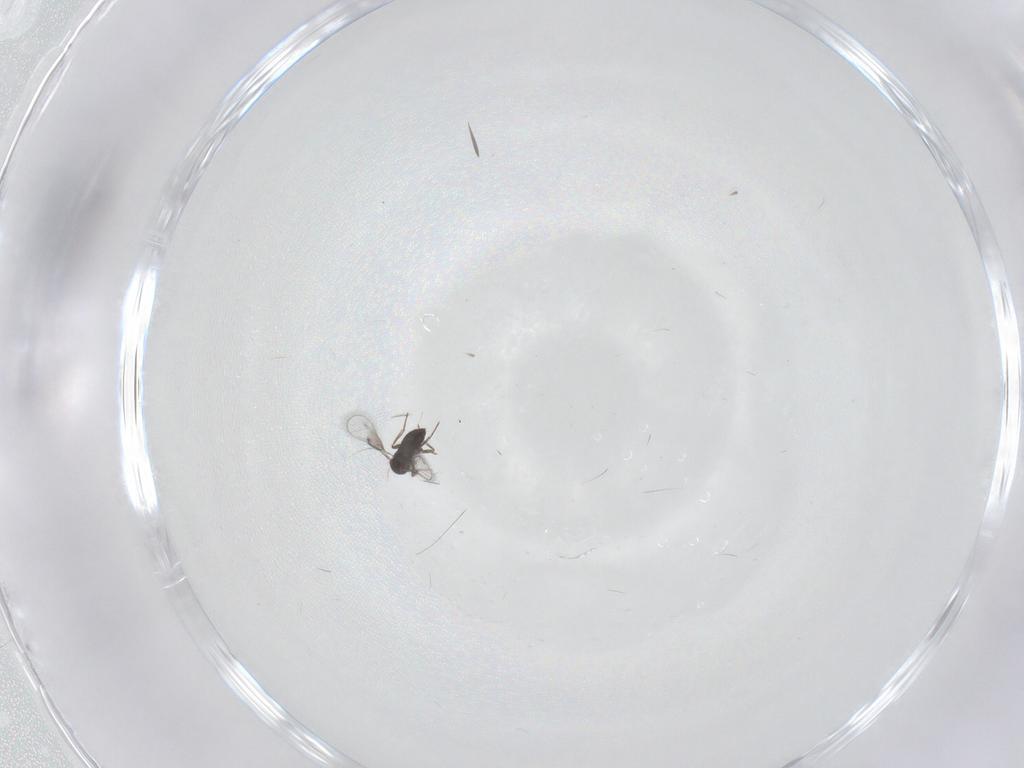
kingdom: Animalia
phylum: Arthropoda
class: Insecta
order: Hymenoptera
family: Trichogrammatidae
